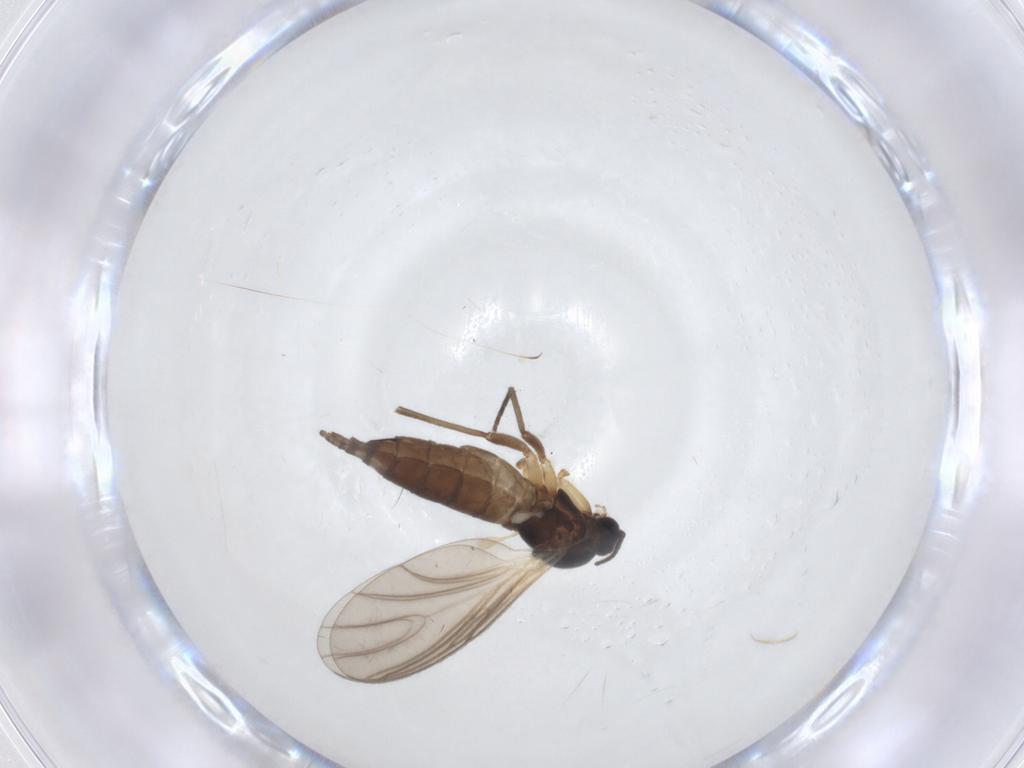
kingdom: Animalia
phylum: Arthropoda
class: Insecta
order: Diptera
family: Sciaridae
